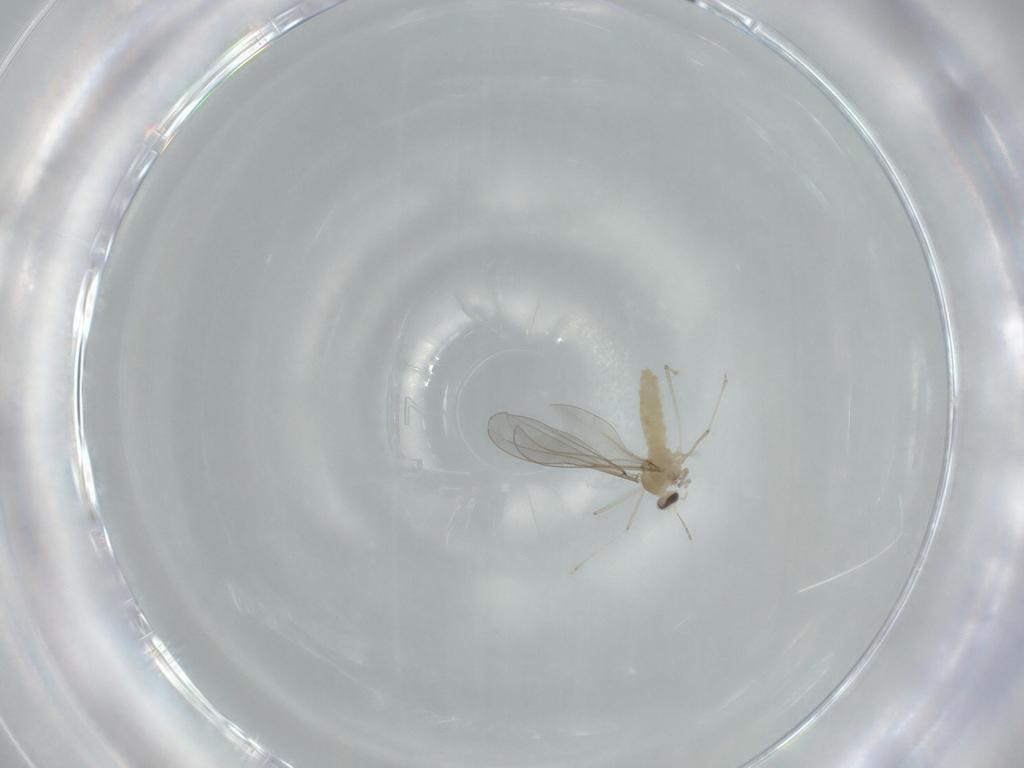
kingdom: Animalia
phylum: Arthropoda
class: Insecta
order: Diptera
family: Cecidomyiidae
